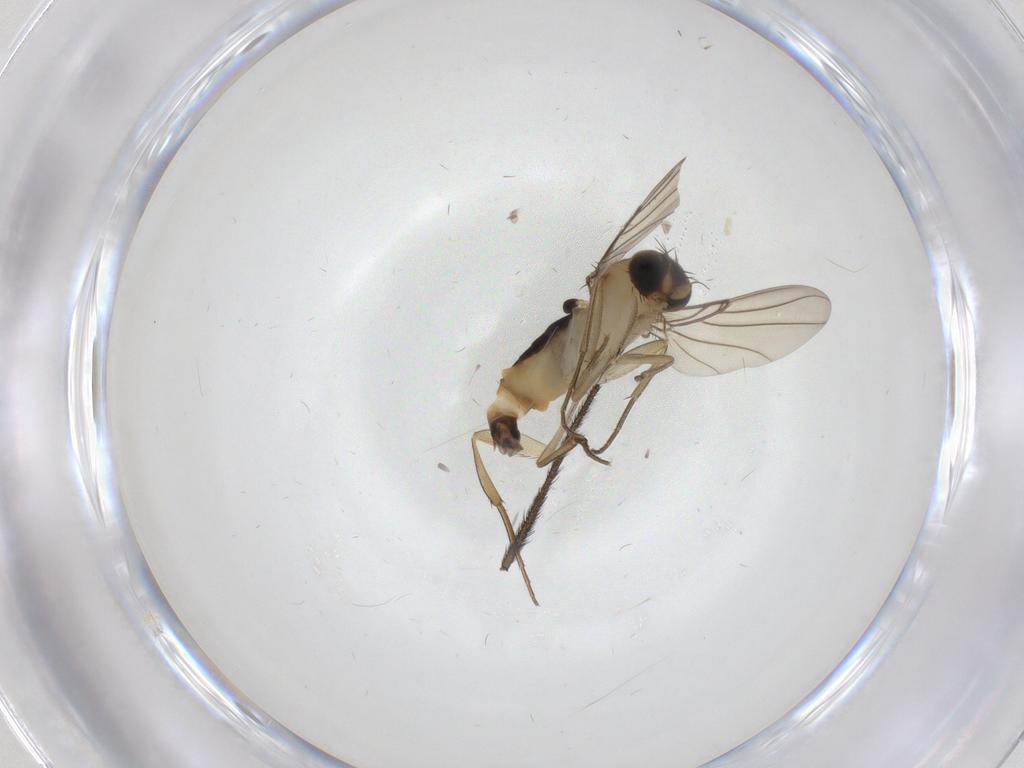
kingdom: Animalia
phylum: Arthropoda
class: Insecta
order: Diptera
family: Phoridae
